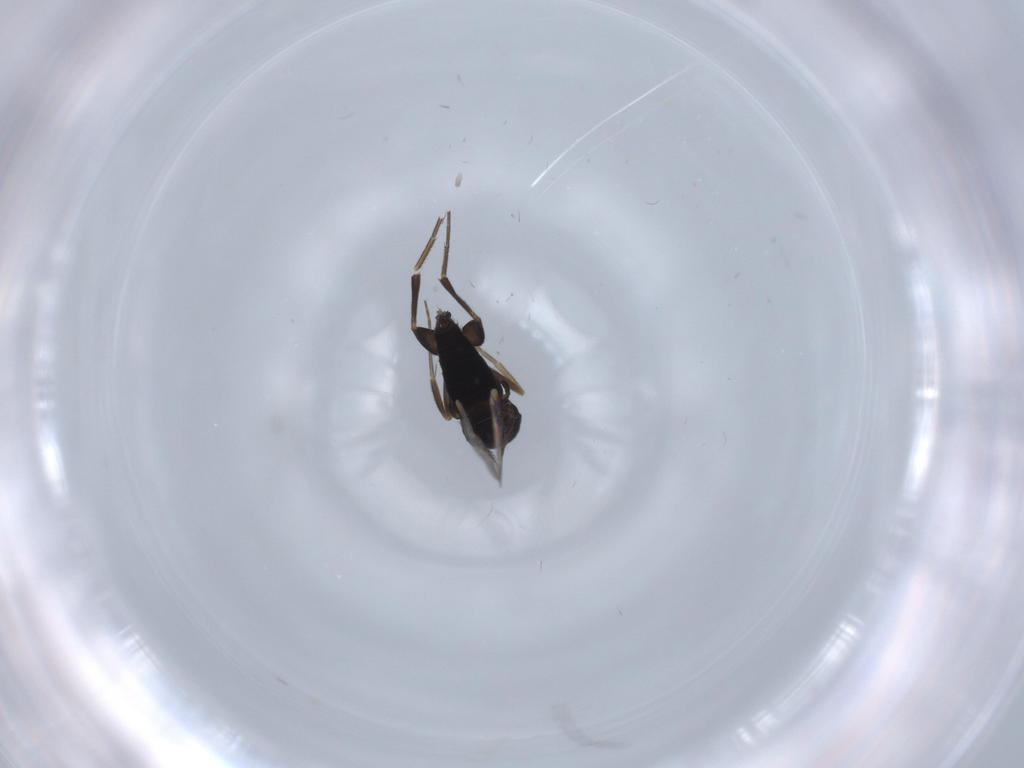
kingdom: Animalia
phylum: Arthropoda
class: Insecta
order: Diptera
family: Phoridae
